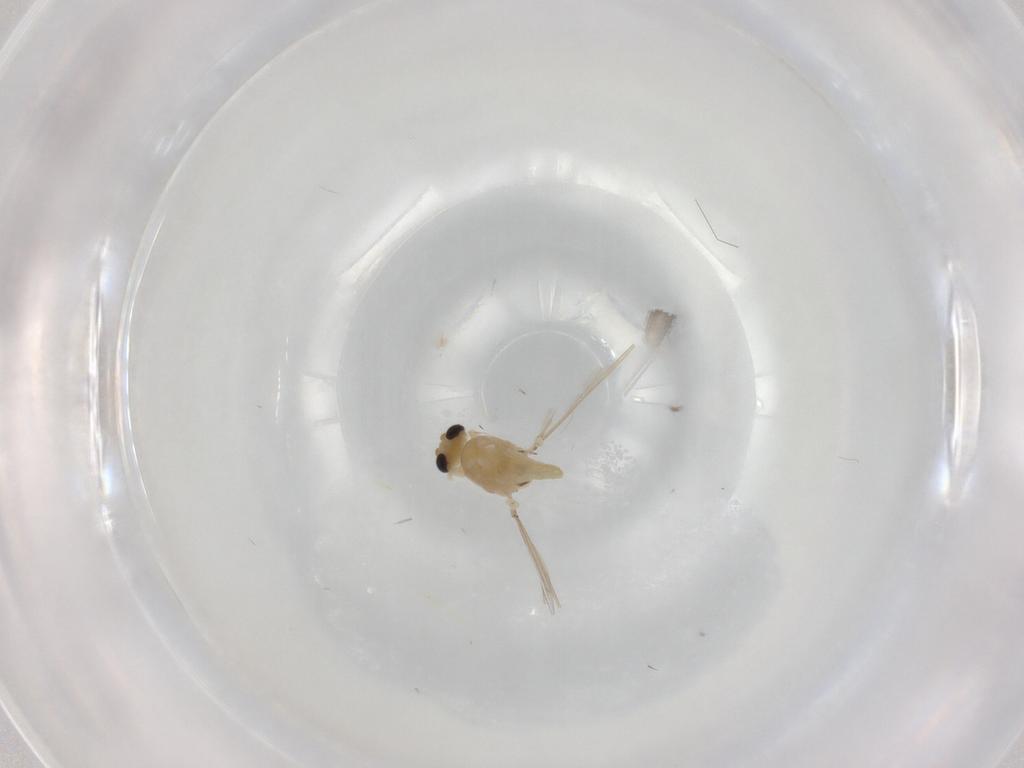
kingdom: Animalia
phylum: Arthropoda
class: Insecta
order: Diptera
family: Chironomidae
